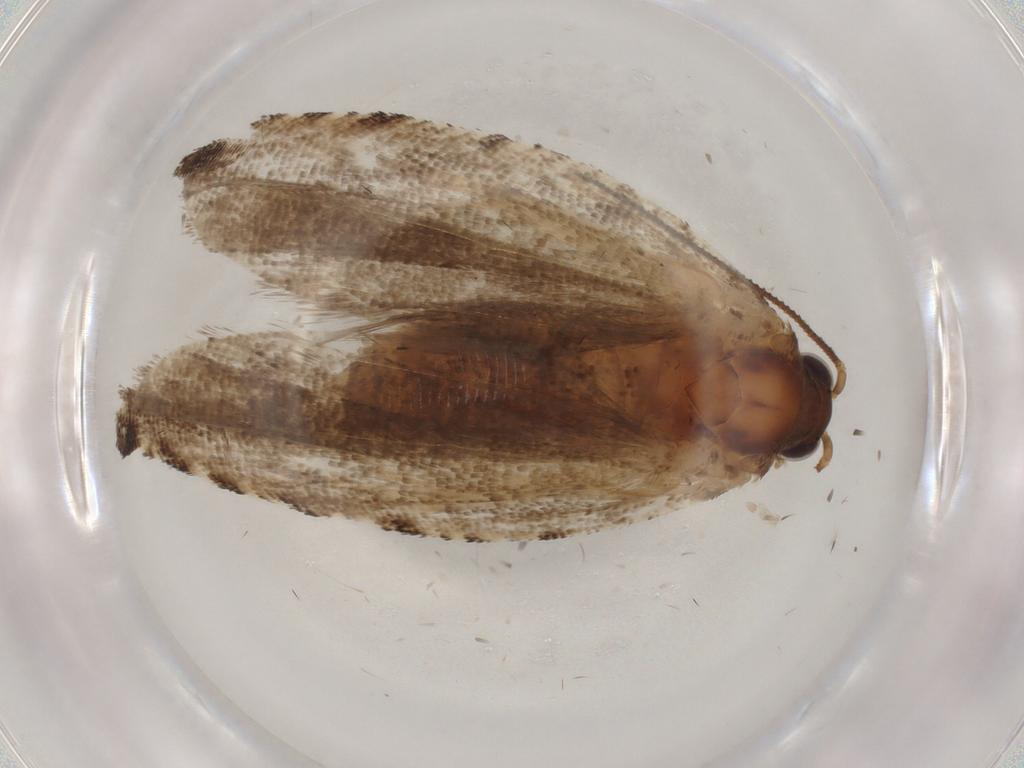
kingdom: Animalia
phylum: Arthropoda
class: Insecta
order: Lepidoptera
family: Tortricidae
